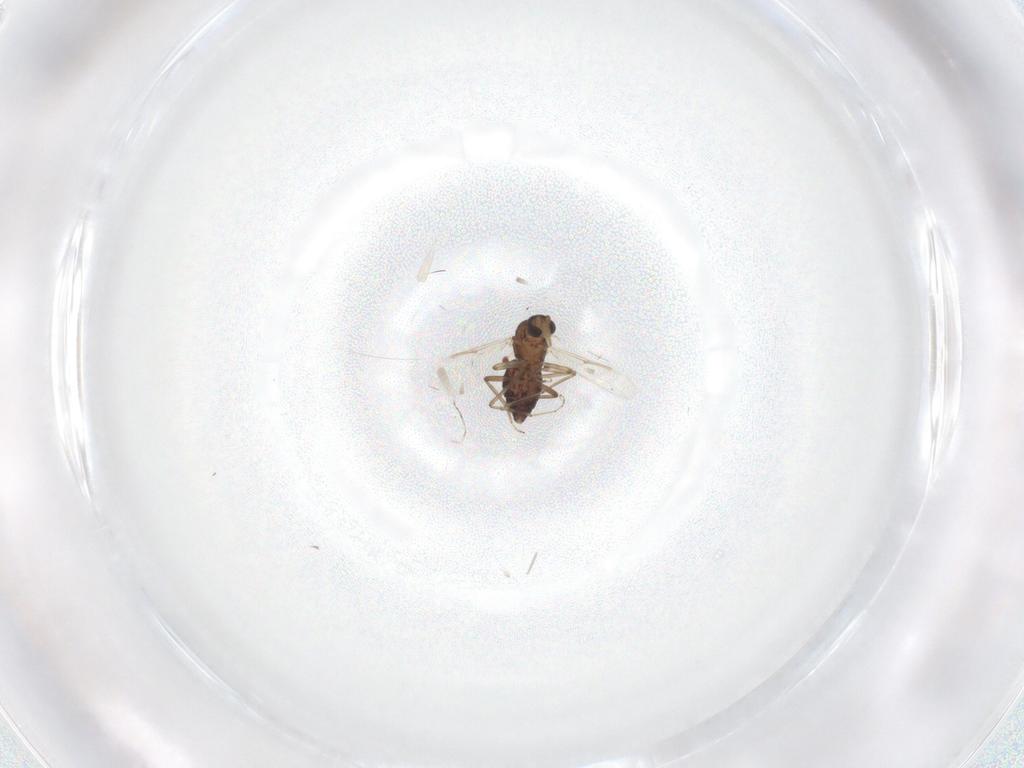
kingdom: Animalia
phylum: Arthropoda
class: Insecta
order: Diptera
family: Ceratopogonidae
